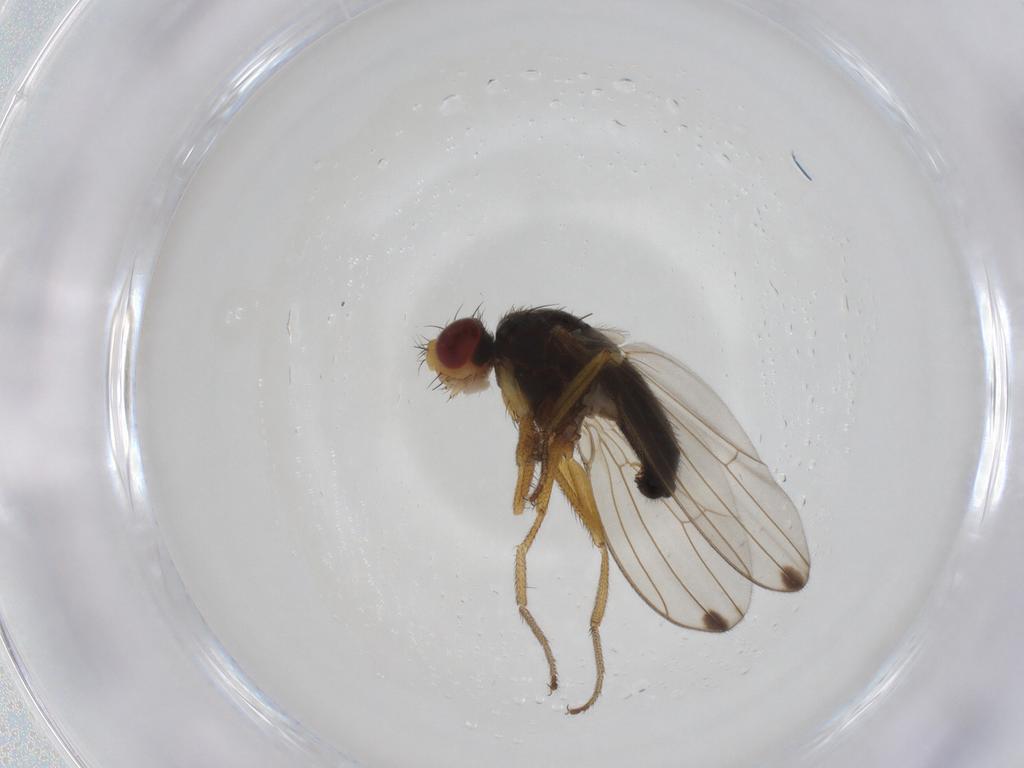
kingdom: Animalia
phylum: Arthropoda
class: Insecta
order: Diptera
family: Drosophilidae
